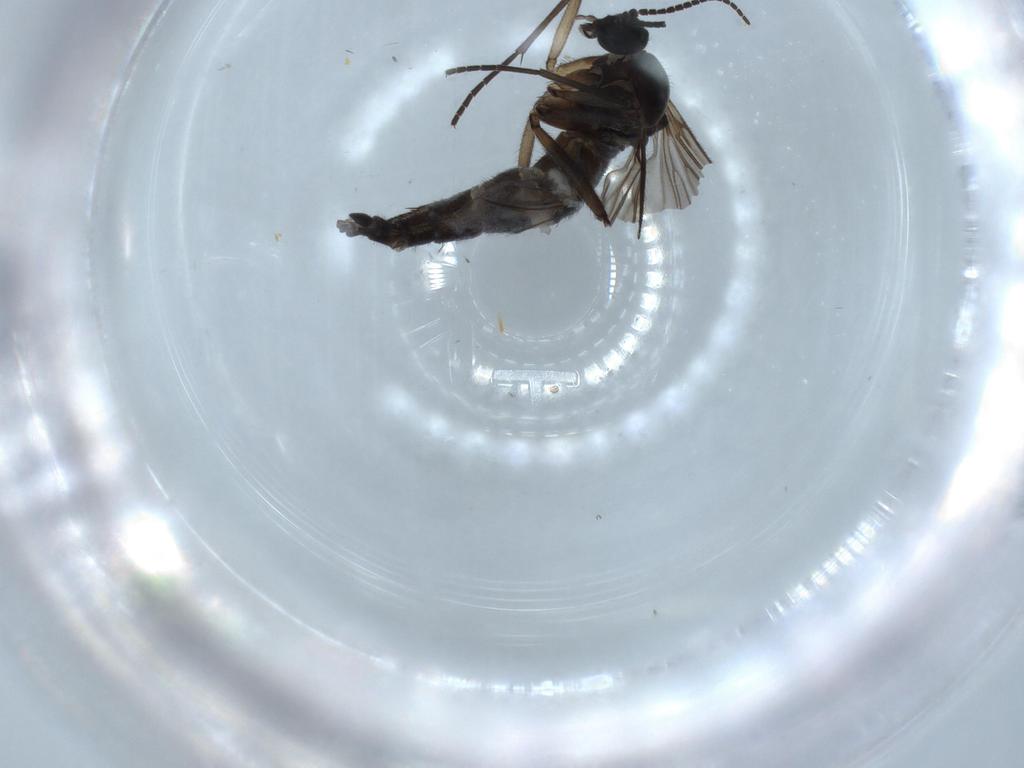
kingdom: Animalia
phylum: Arthropoda
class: Insecta
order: Diptera
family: Sciaridae
